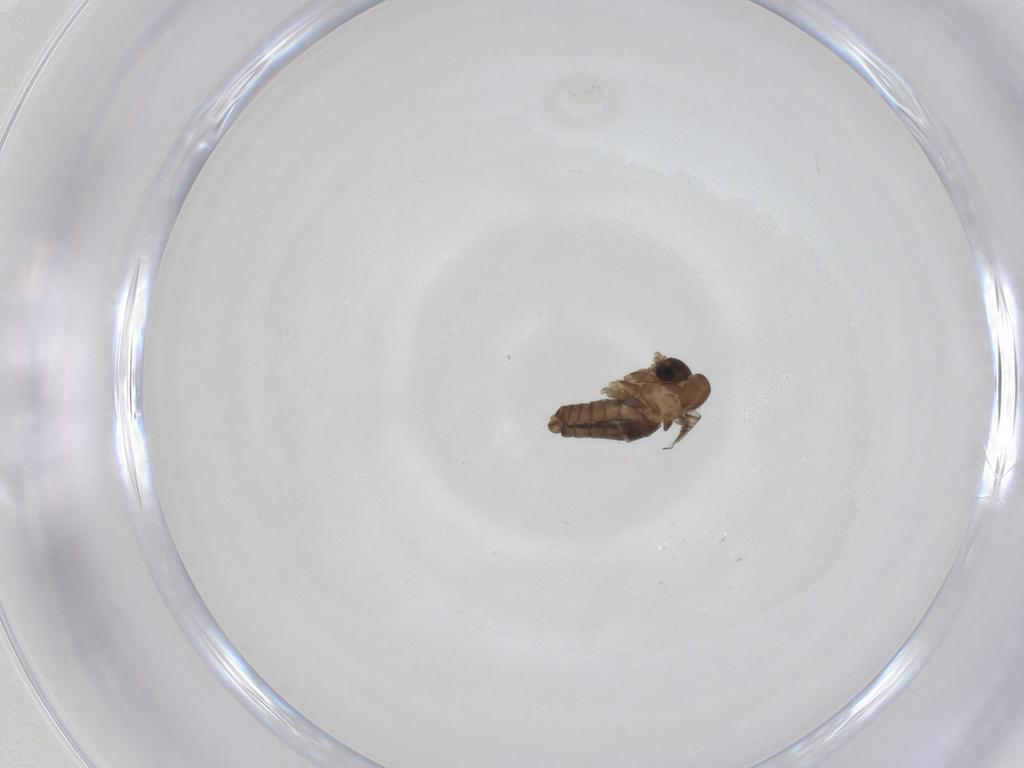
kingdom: Animalia
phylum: Arthropoda
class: Insecta
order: Diptera
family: Psychodidae
